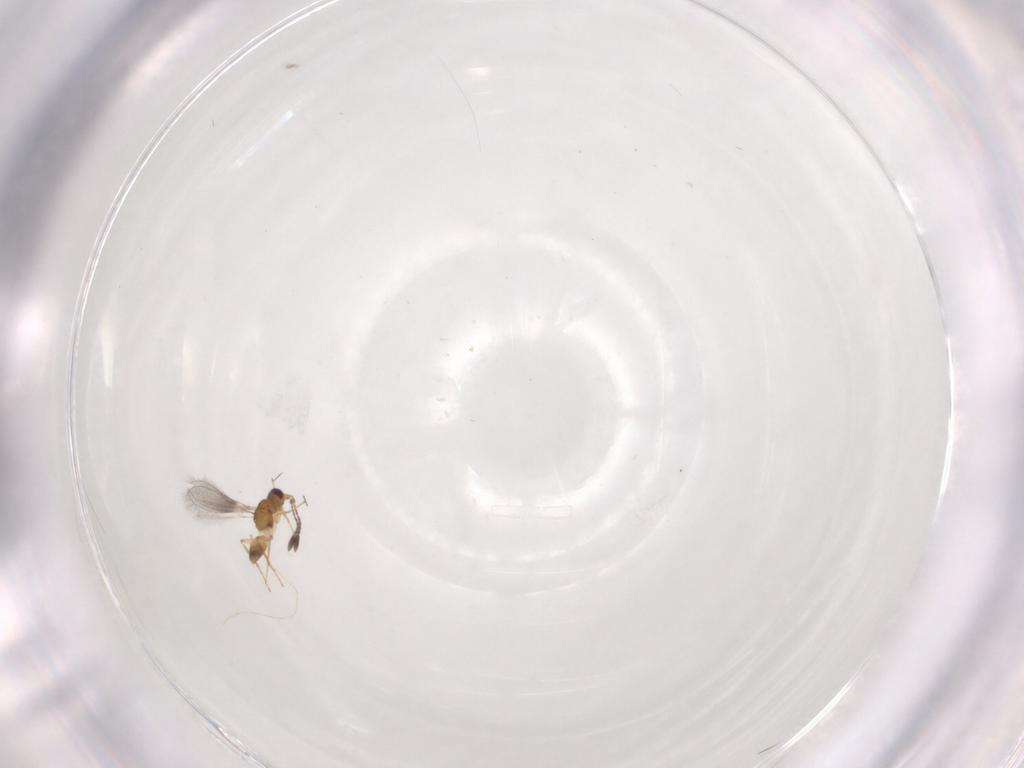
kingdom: Animalia
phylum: Arthropoda
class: Insecta
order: Hymenoptera
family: Mymaridae
